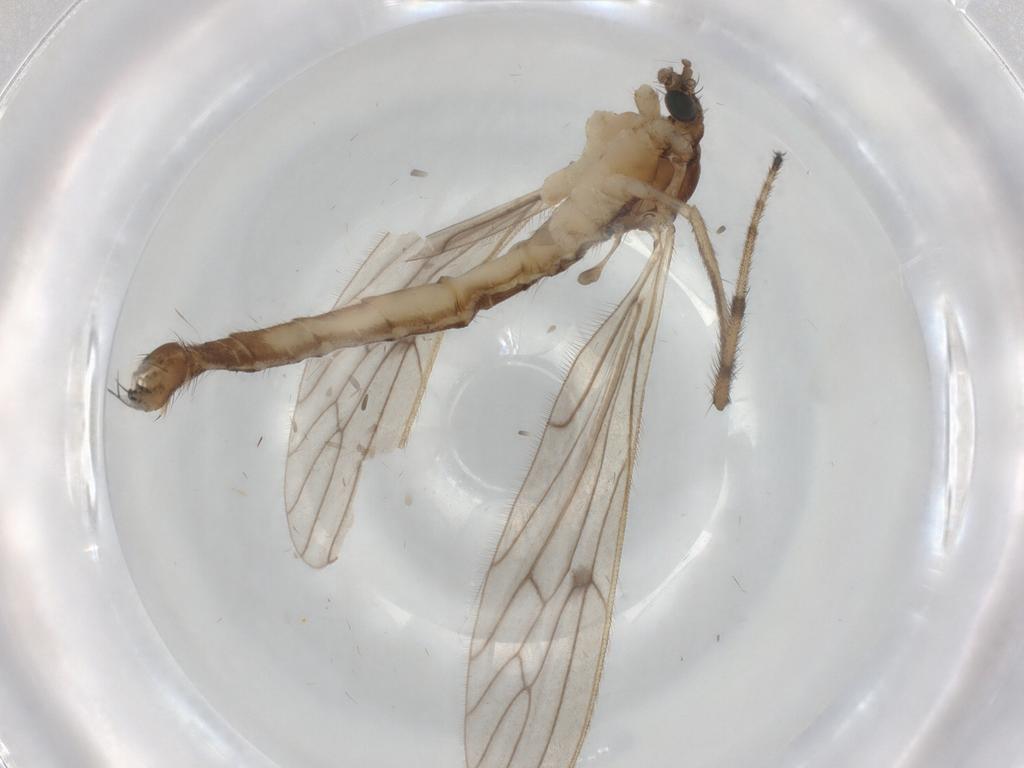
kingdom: Animalia
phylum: Arthropoda
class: Insecta
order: Diptera
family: Limoniidae
